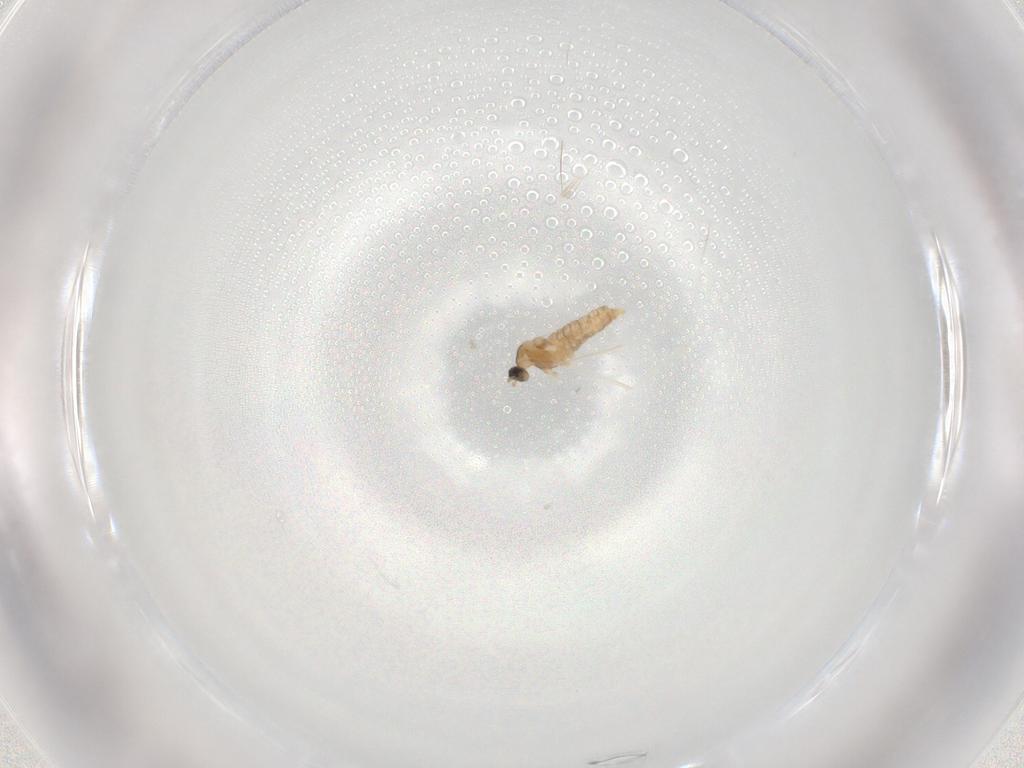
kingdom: Animalia
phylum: Arthropoda
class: Insecta
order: Diptera
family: Cecidomyiidae
